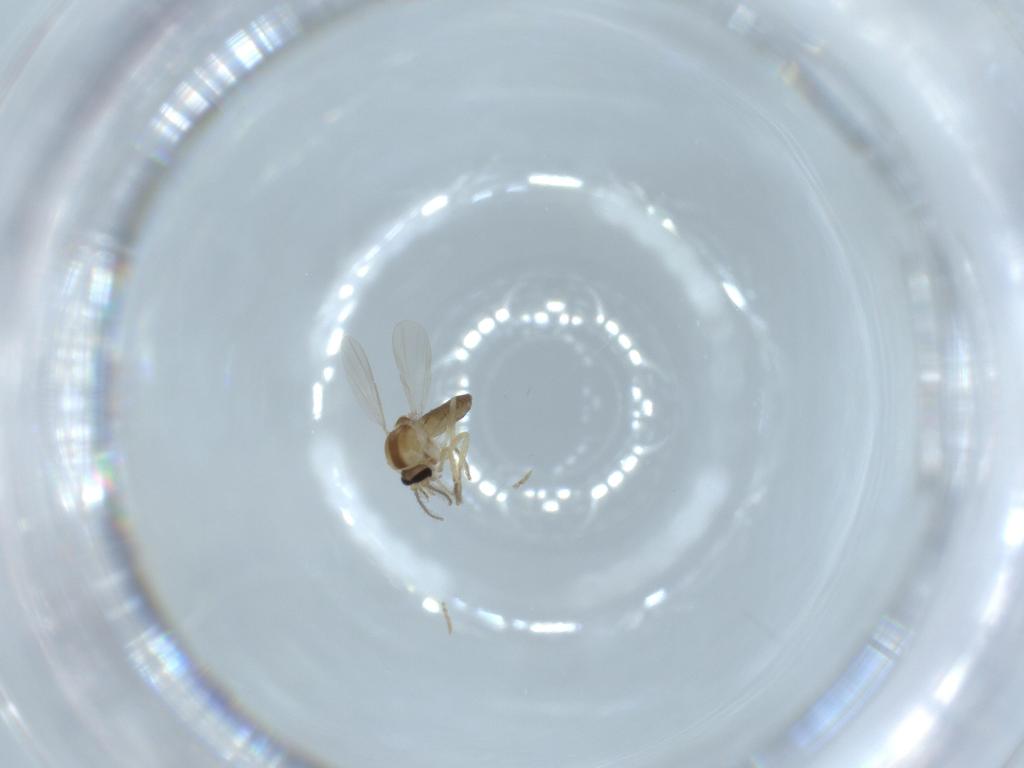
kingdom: Animalia
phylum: Arthropoda
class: Insecta
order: Diptera
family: Ceratopogonidae
